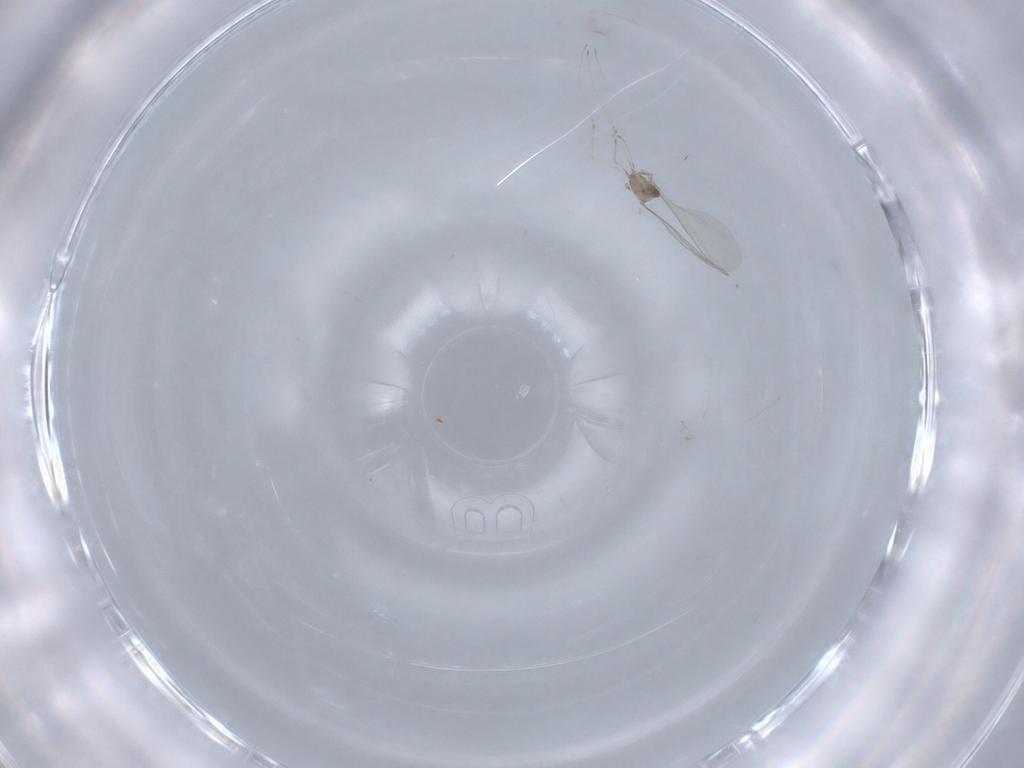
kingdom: Animalia
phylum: Arthropoda
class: Insecta
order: Diptera
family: Cecidomyiidae
